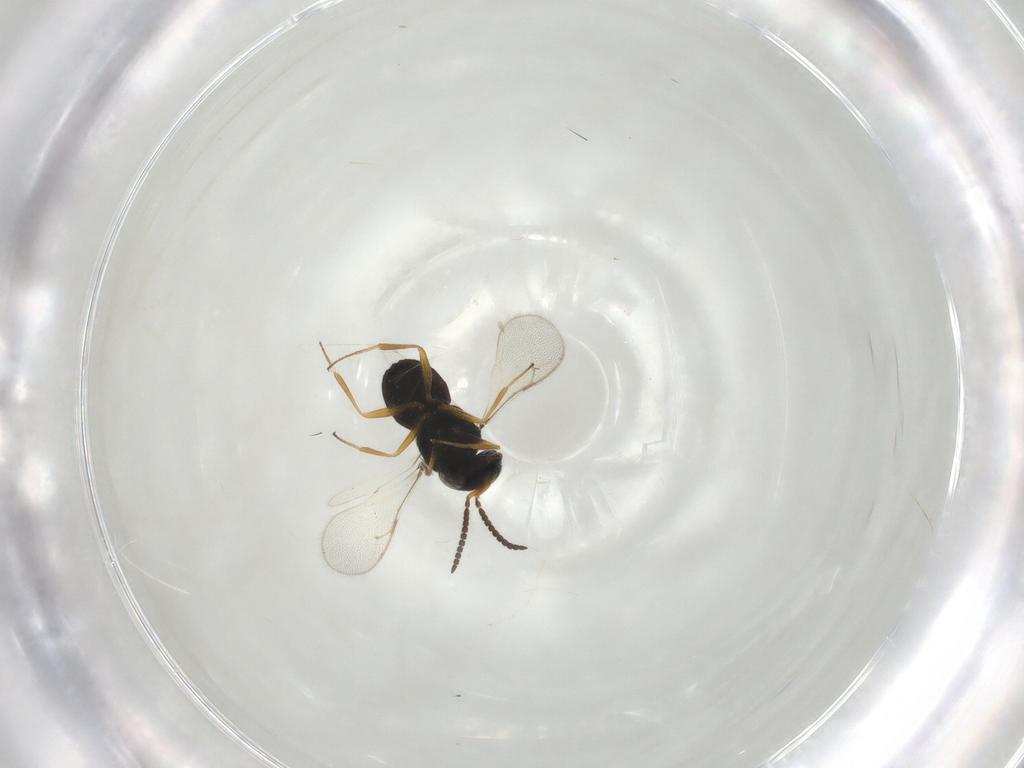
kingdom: Animalia
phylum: Arthropoda
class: Insecta
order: Hymenoptera
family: Scelionidae
